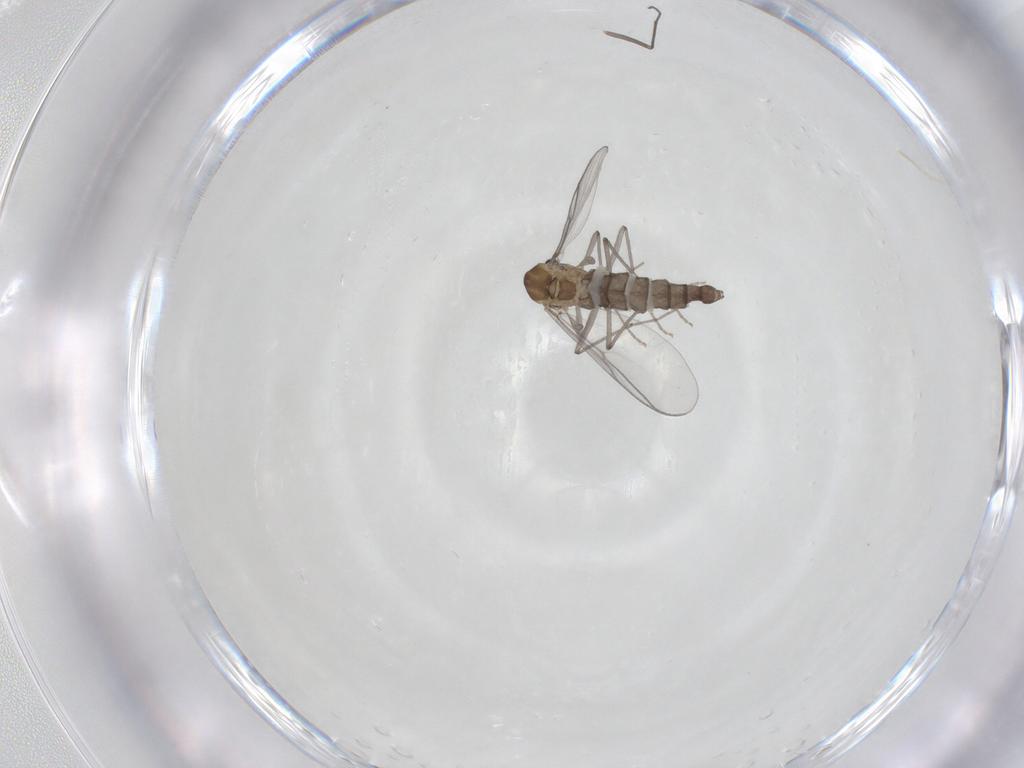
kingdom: Animalia
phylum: Arthropoda
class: Insecta
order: Diptera
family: Chironomidae
